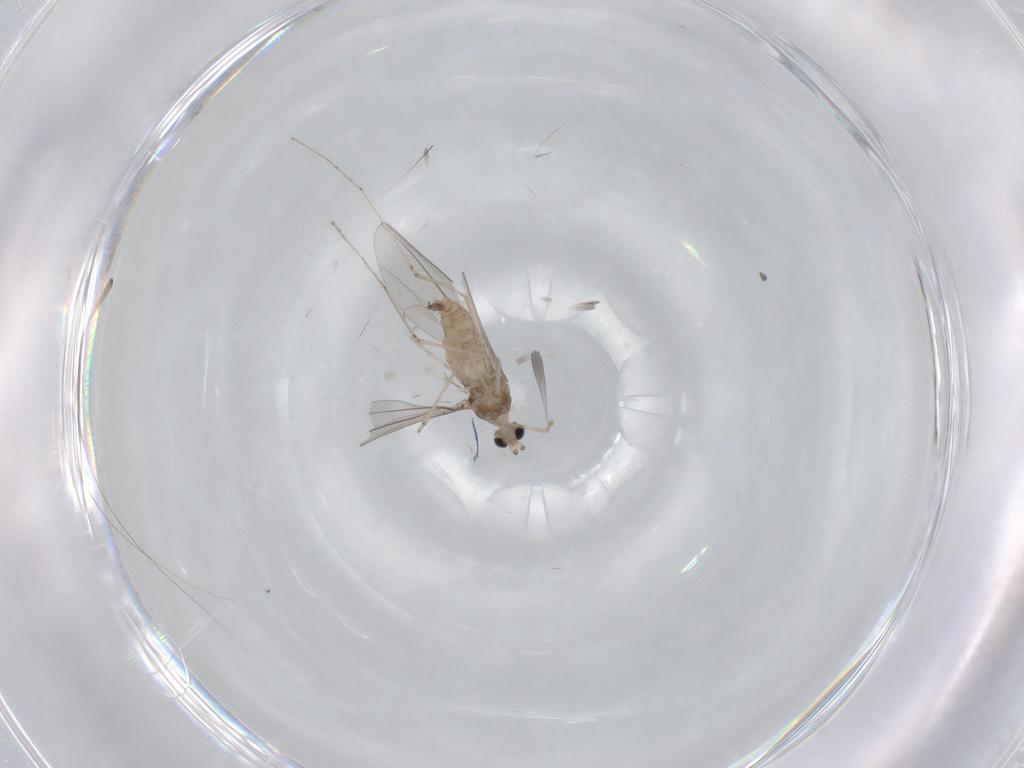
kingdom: Animalia
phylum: Arthropoda
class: Insecta
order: Diptera
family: Cecidomyiidae
